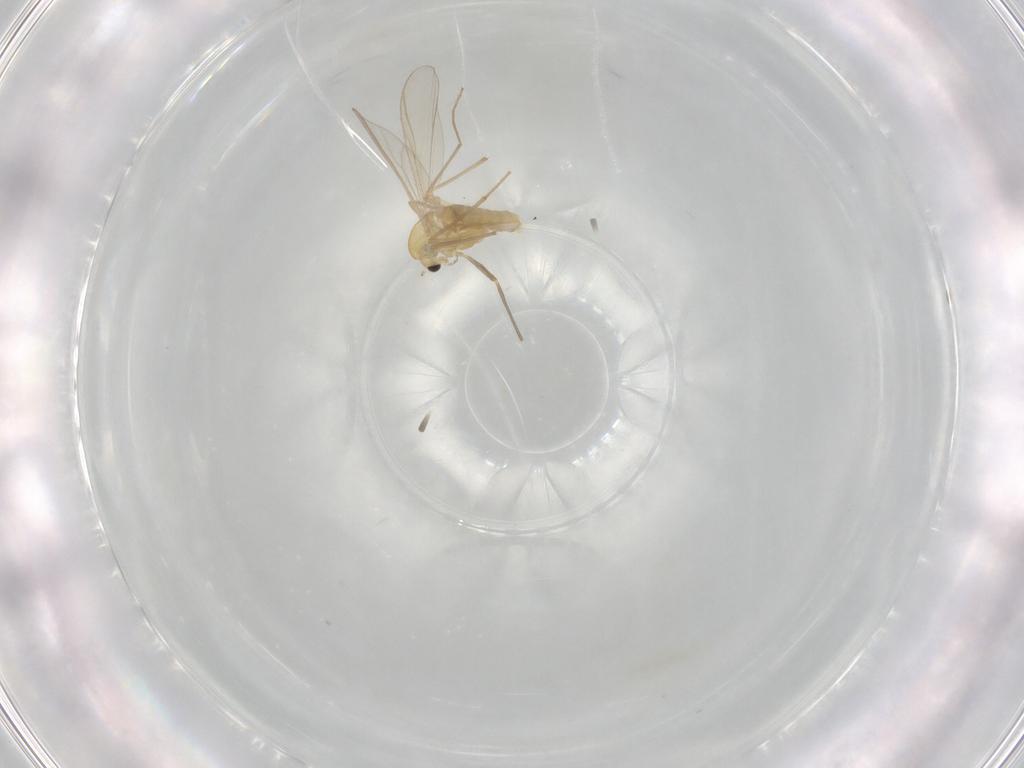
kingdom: Animalia
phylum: Arthropoda
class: Insecta
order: Diptera
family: Chironomidae
